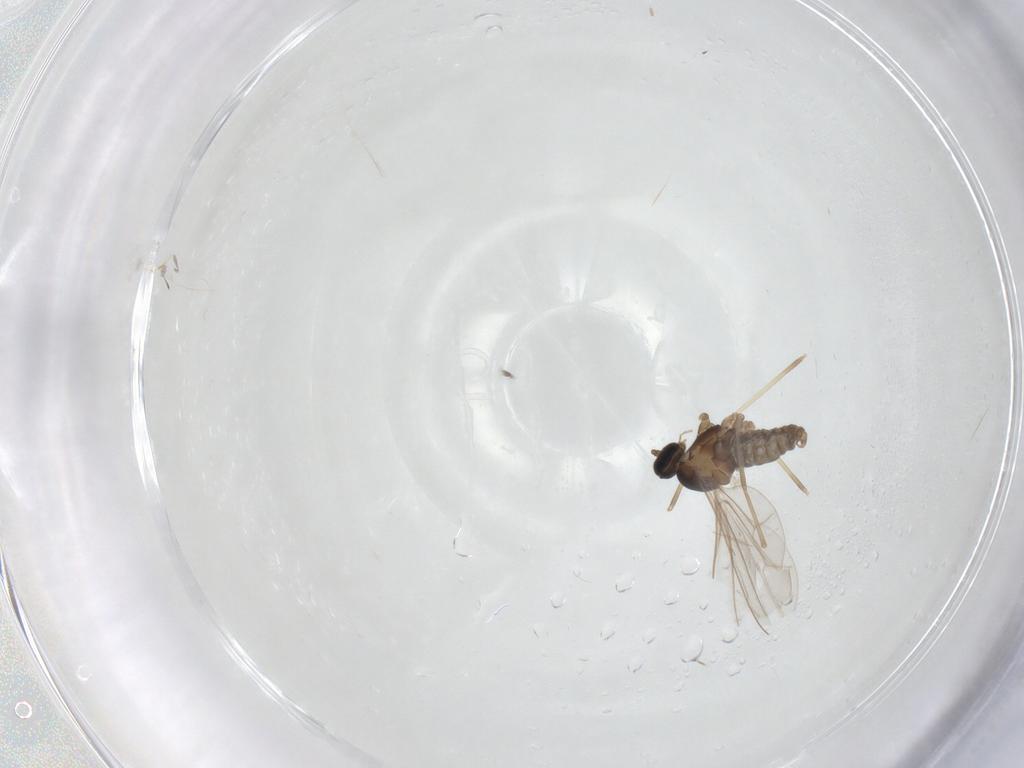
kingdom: Animalia
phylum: Arthropoda
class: Insecta
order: Diptera
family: Cecidomyiidae
